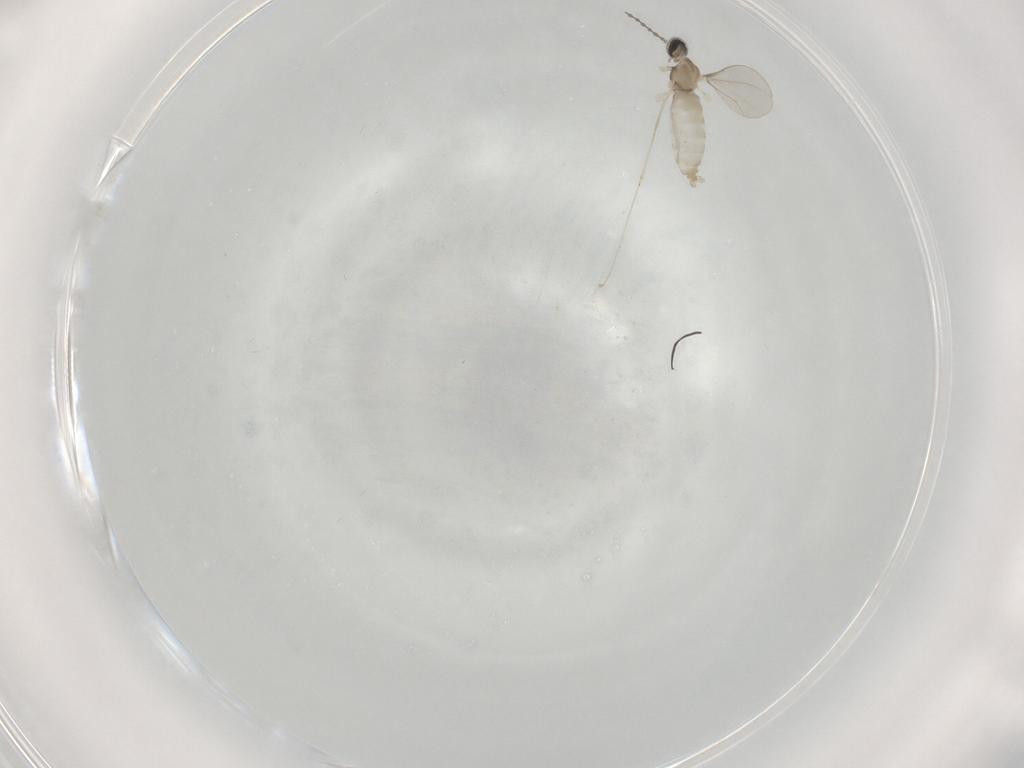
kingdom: Animalia
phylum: Arthropoda
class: Insecta
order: Diptera
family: Cecidomyiidae
